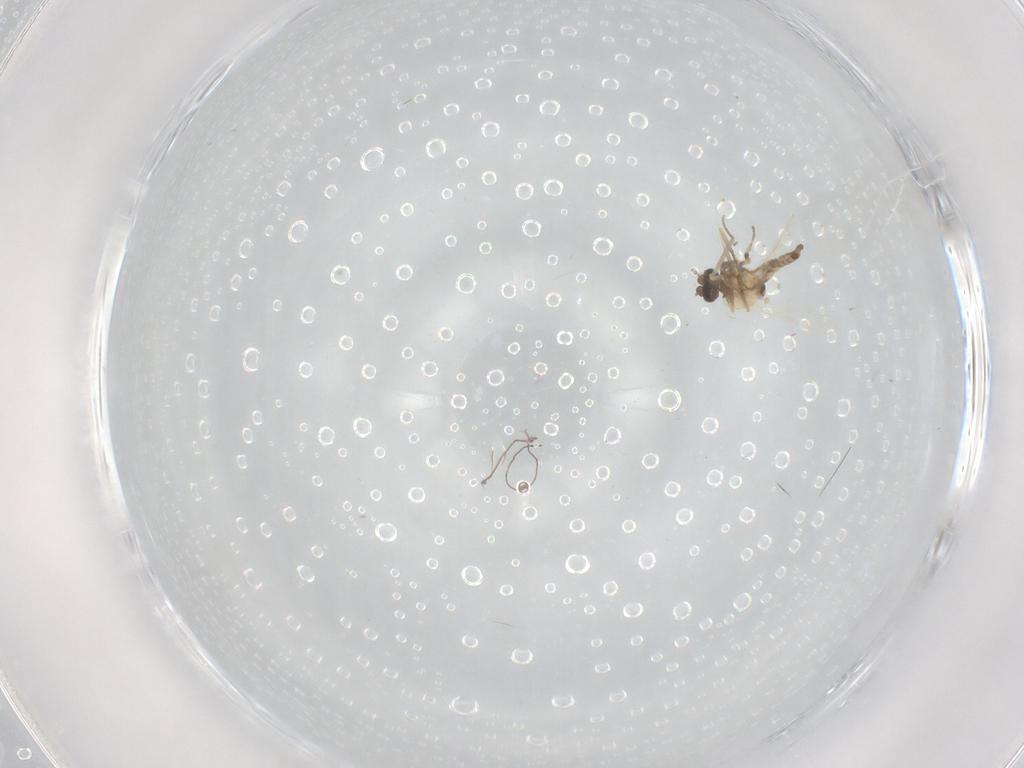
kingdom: Animalia
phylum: Arthropoda
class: Insecta
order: Diptera
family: Ceratopogonidae
